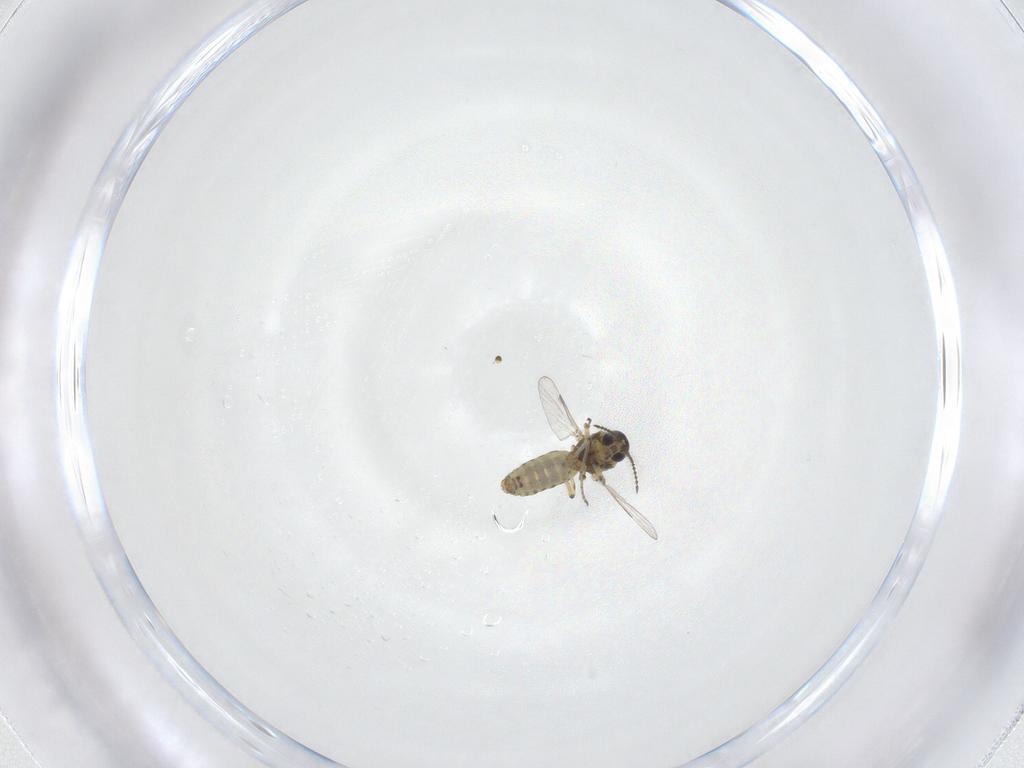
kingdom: Animalia
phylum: Arthropoda
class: Insecta
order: Diptera
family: Ceratopogonidae
